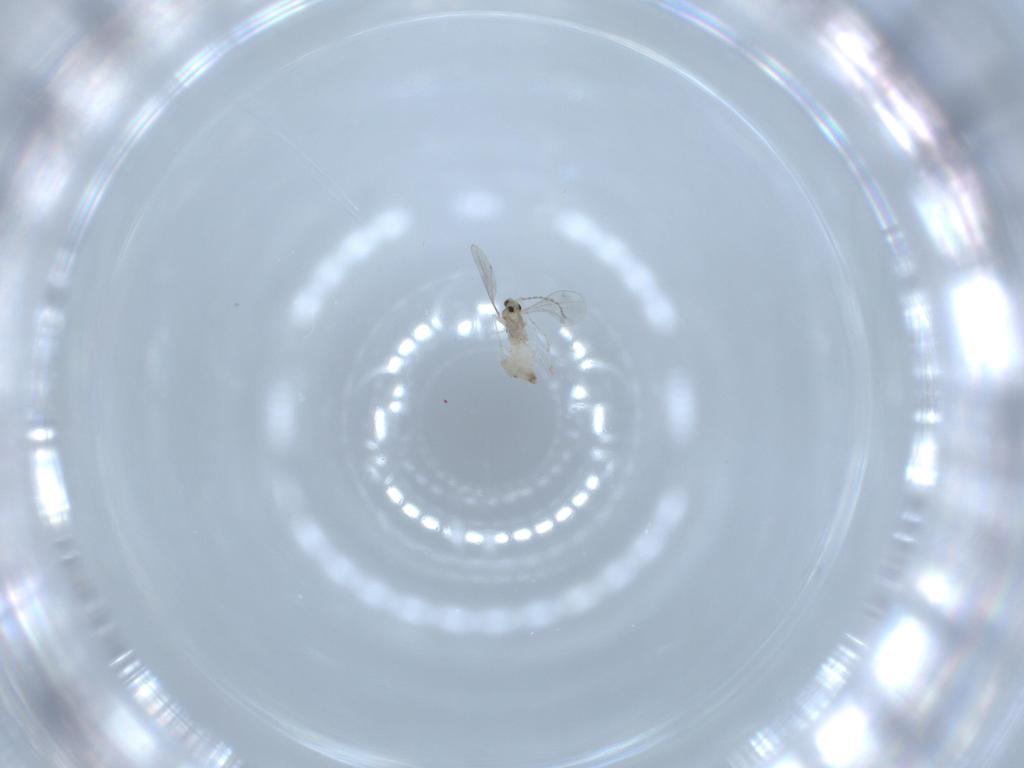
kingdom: Animalia
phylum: Arthropoda
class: Insecta
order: Diptera
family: Cecidomyiidae
